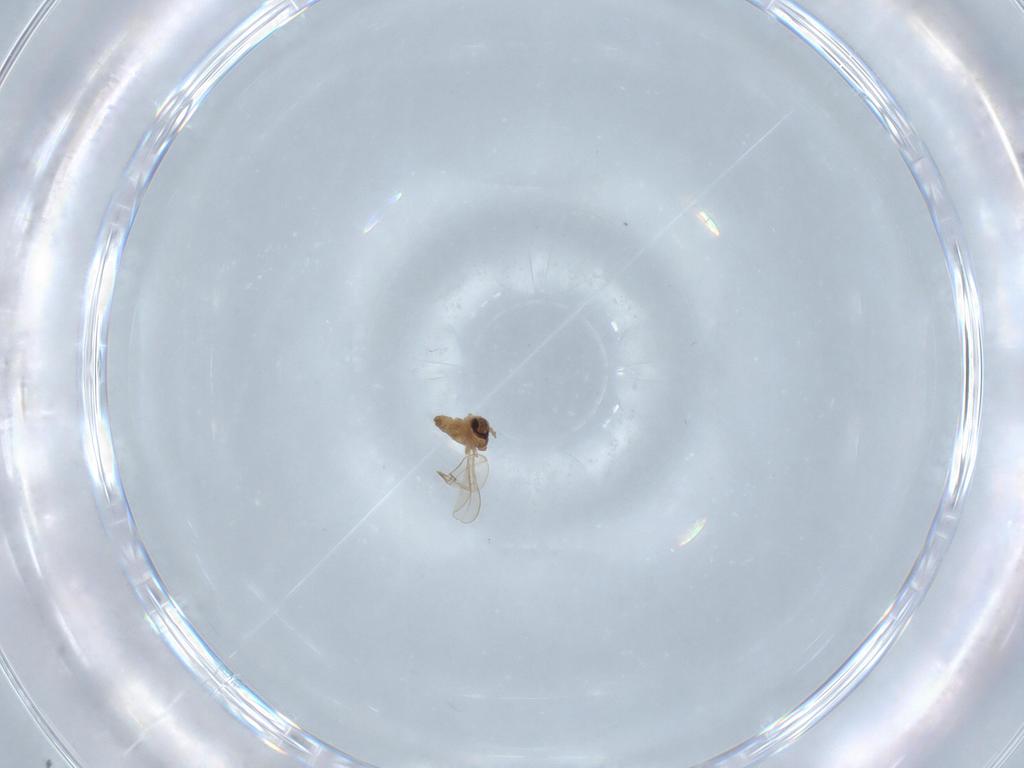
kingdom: Animalia
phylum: Arthropoda
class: Insecta
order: Diptera
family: Cecidomyiidae
